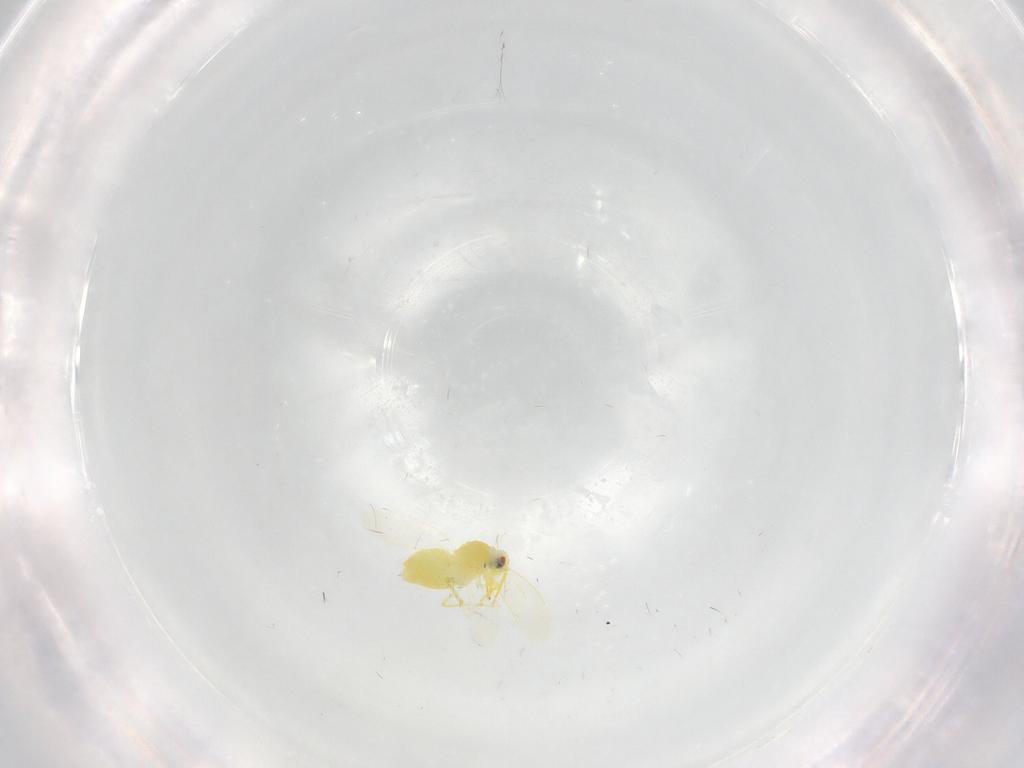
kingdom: Animalia
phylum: Arthropoda
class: Insecta
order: Hemiptera
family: Aleyrodidae
